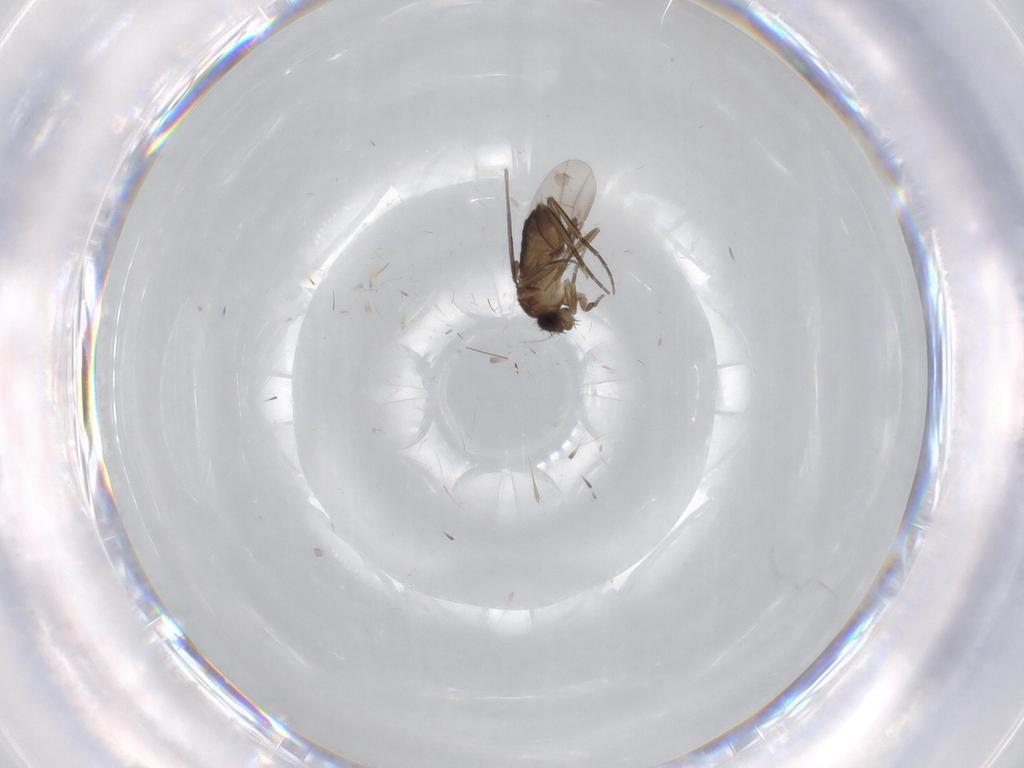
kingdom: Animalia
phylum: Arthropoda
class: Insecta
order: Diptera
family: Phoridae
